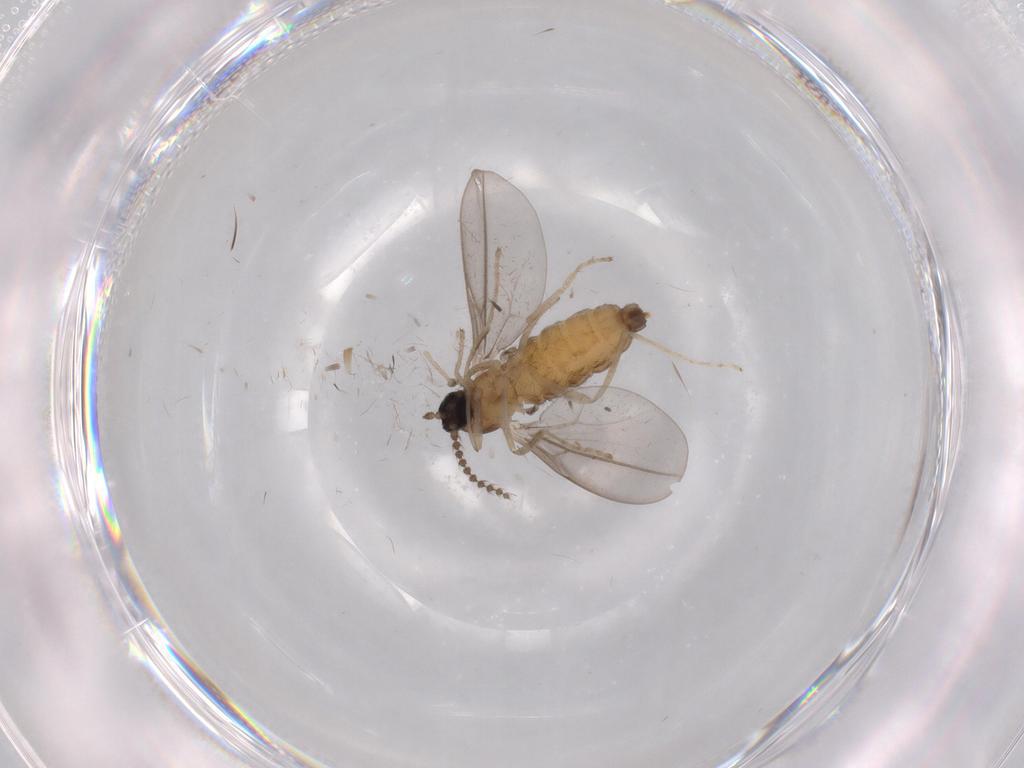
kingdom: Animalia
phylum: Arthropoda
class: Insecta
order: Diptera
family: Cecidomyiidae
